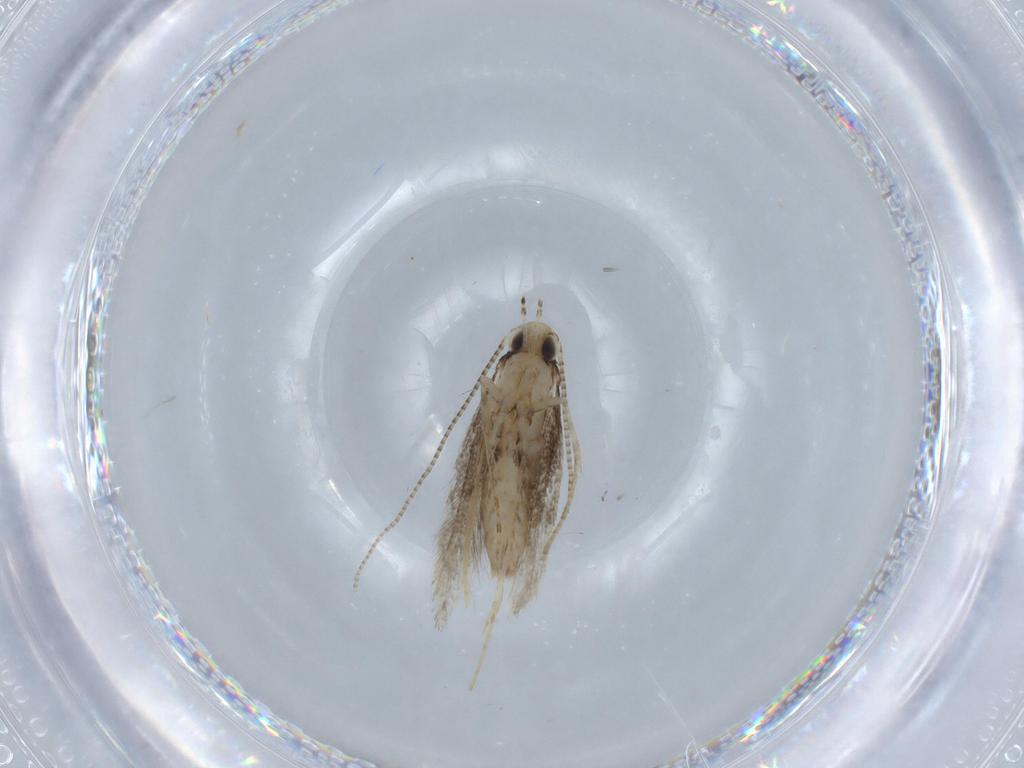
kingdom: Animalia
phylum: Arthropoda
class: Insecta
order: Lepidoptera
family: Gracillariidae
